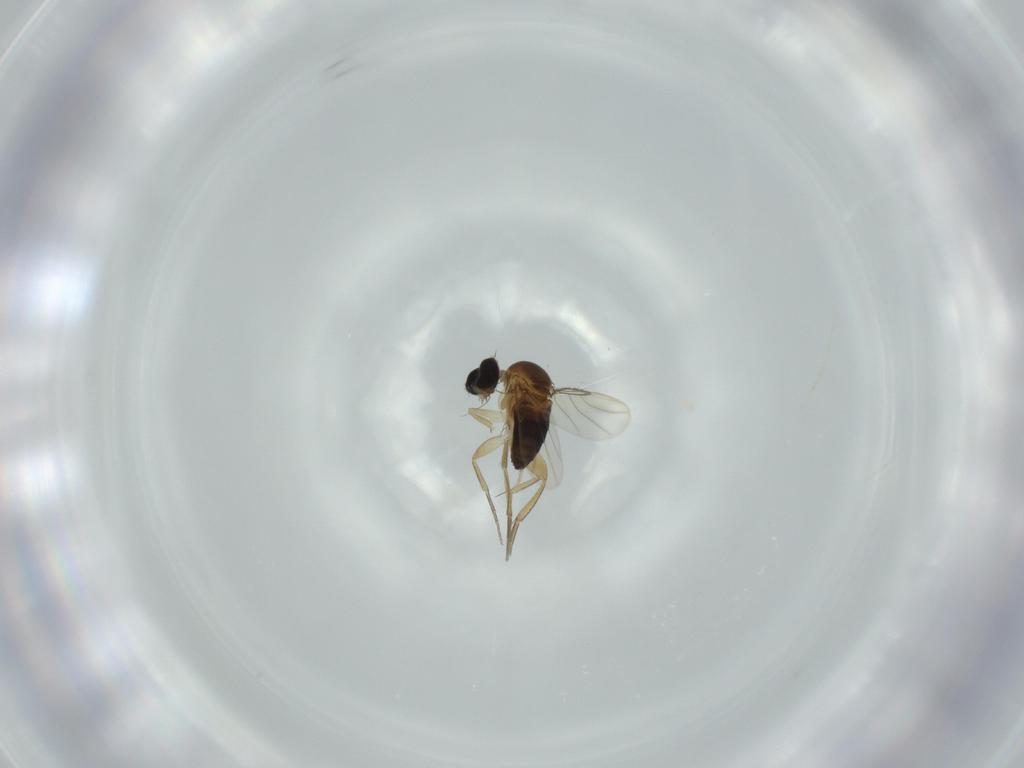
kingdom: Animalia
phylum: Arthropoda
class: Insecta
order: Diptera
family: Phoridae
